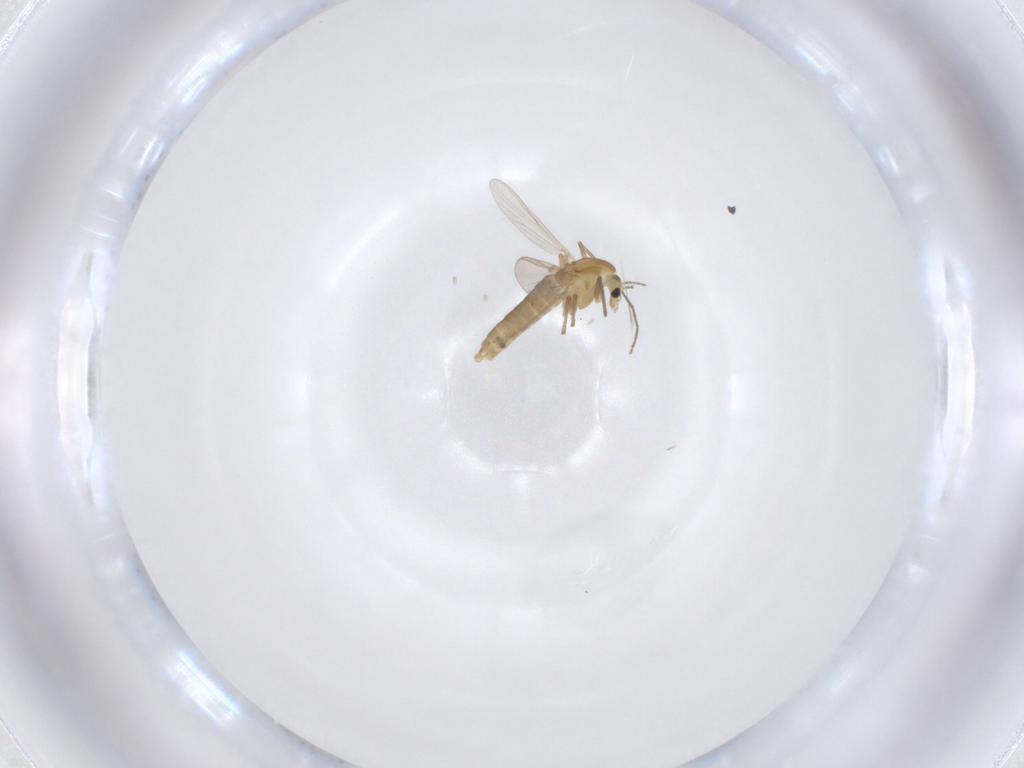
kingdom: Animalia
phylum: Arthropoda
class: Insecta
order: Diptera
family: Chironomidae
